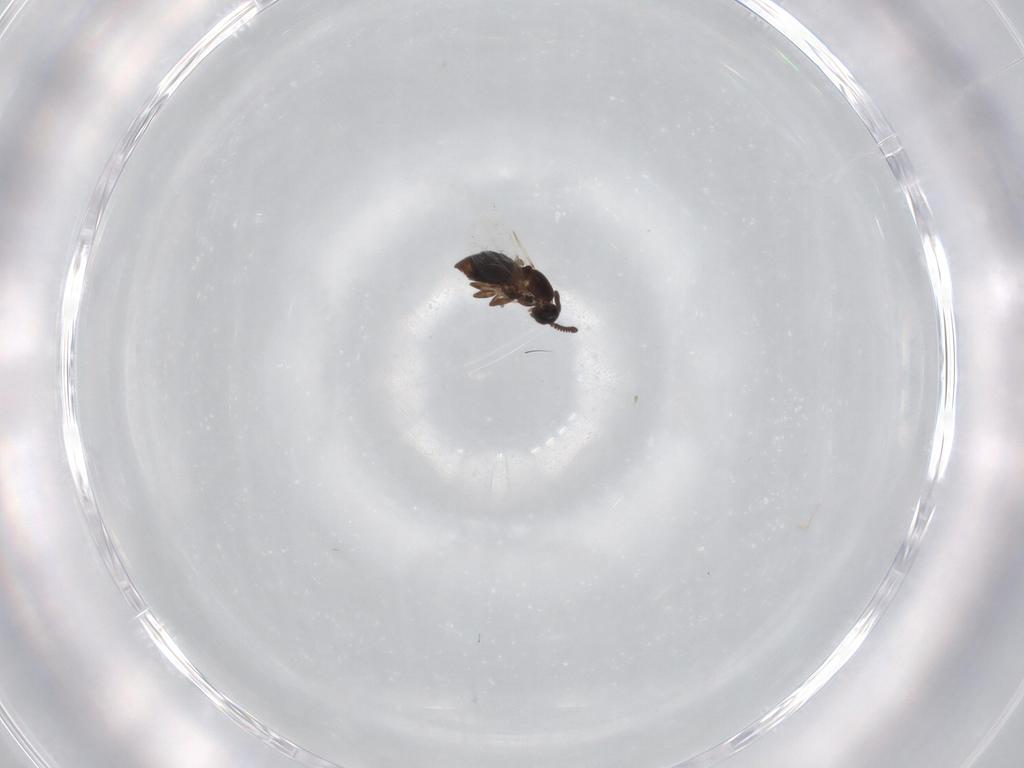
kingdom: Animalia
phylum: Arthropoda
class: Insecta
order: Diptera
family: Scatopsidae
